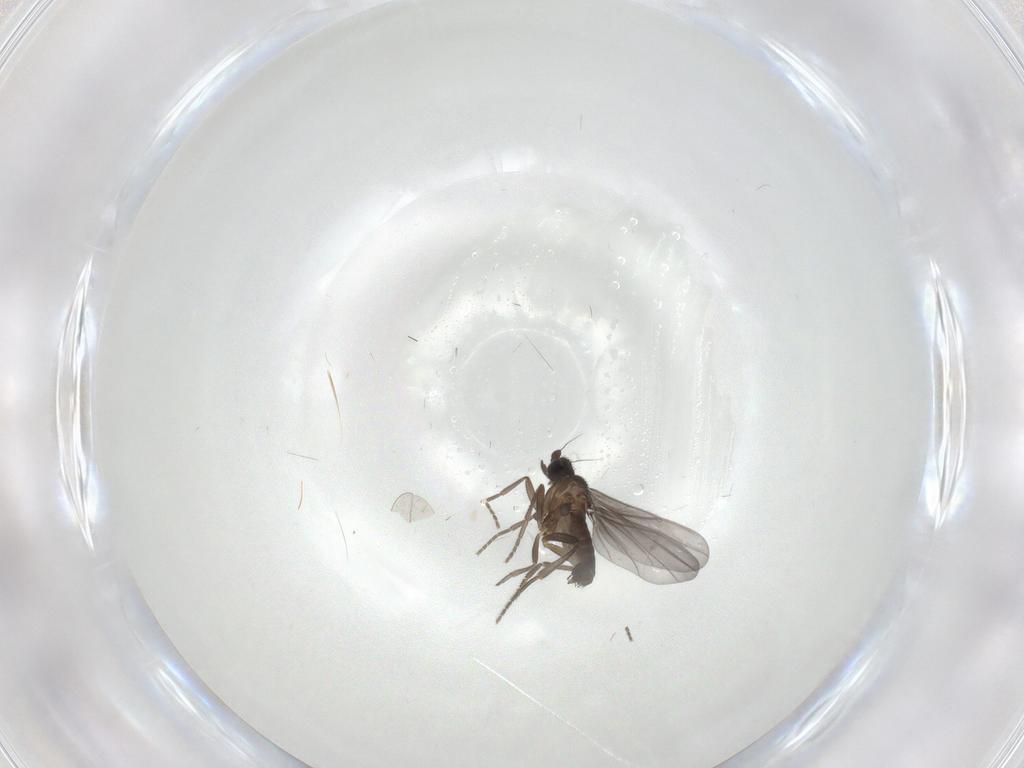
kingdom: Animalia
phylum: Arthropoda
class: Insecta
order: Diptera
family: Phoridae
